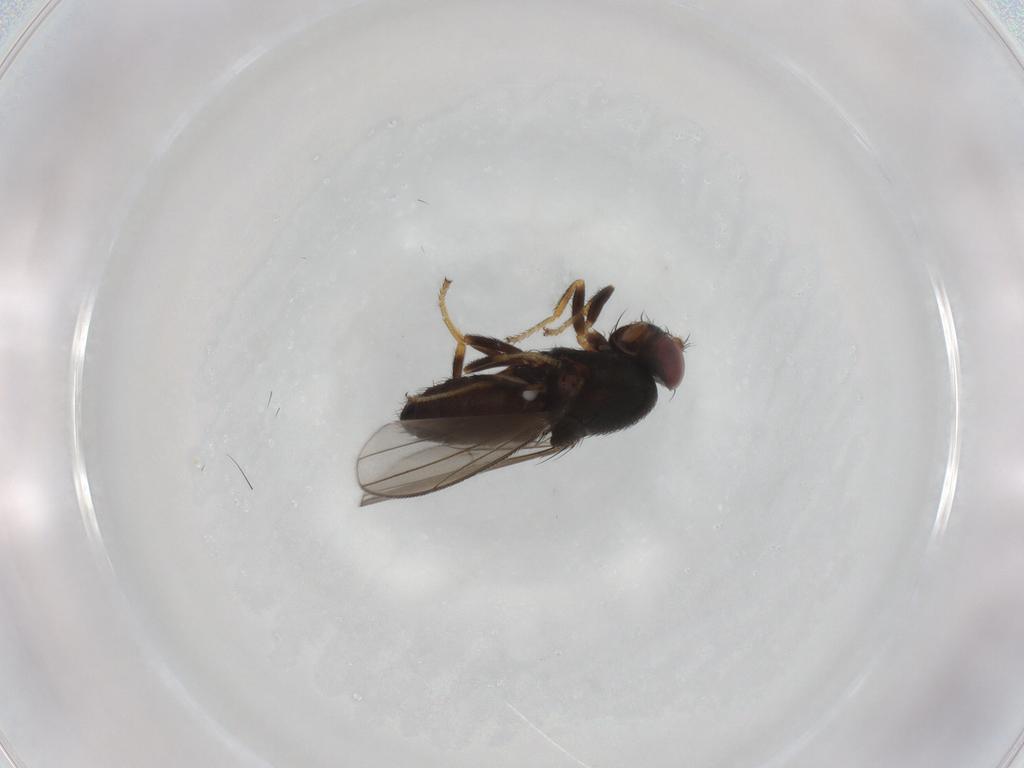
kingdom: Animalia
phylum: Arthropoda
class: Insecta
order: Diptera
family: Ephydridae
